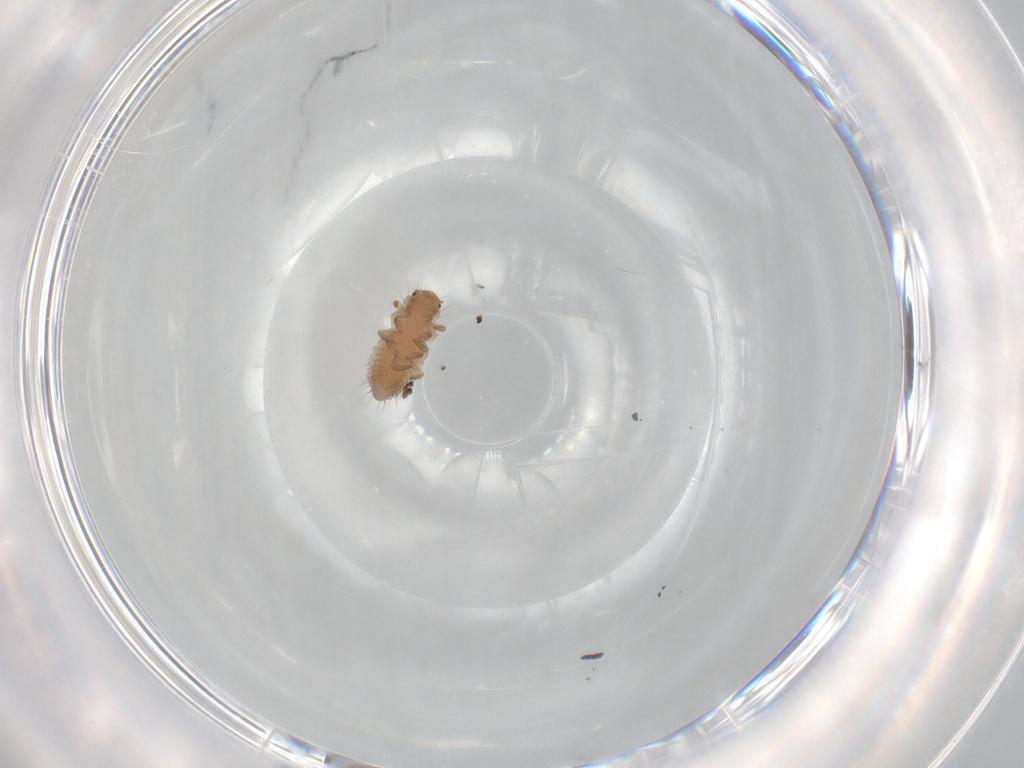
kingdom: Animalia
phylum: Arthropoda
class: Insecta
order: Coleoptera
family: Coccinellidae
